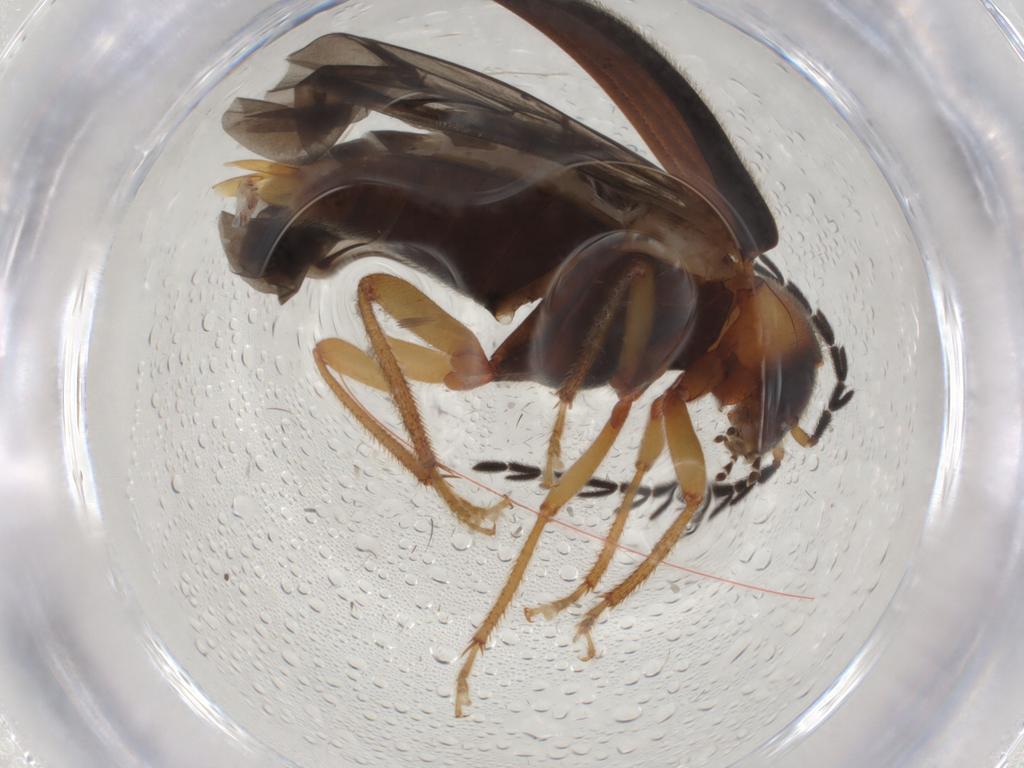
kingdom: Animalia
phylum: Arthropoda
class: Insecta
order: Coleoptera
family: Ptilodactylidae
